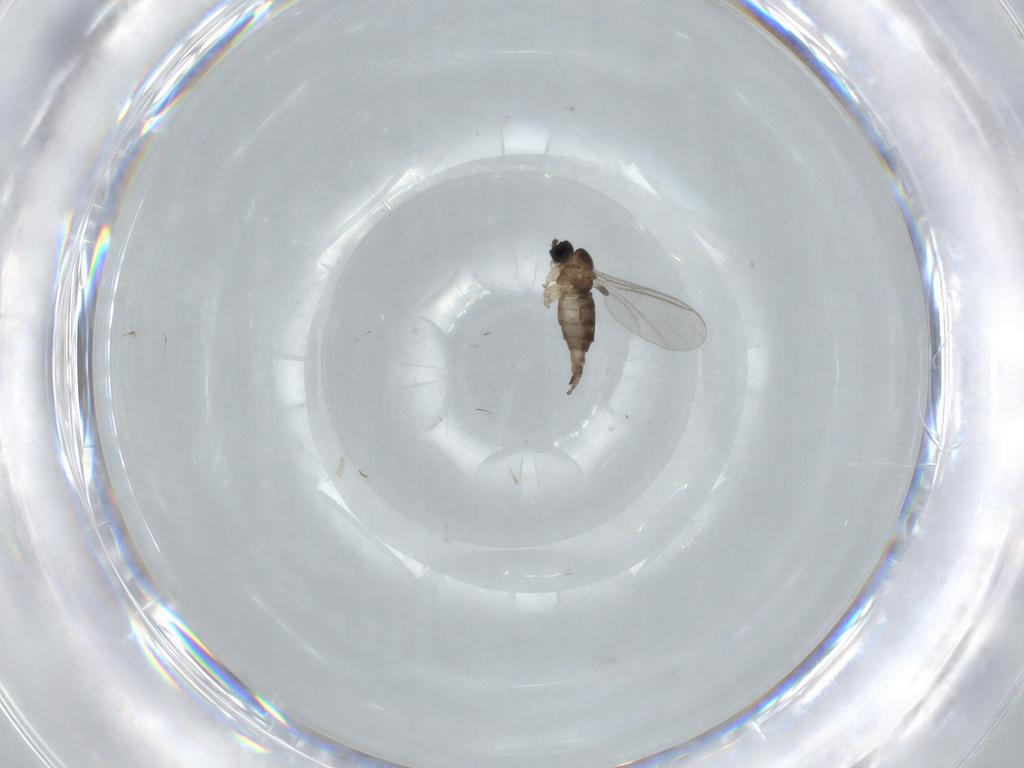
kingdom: Animalia
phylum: Arthropoda
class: Insecta
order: Diptera
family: Sciaridae
